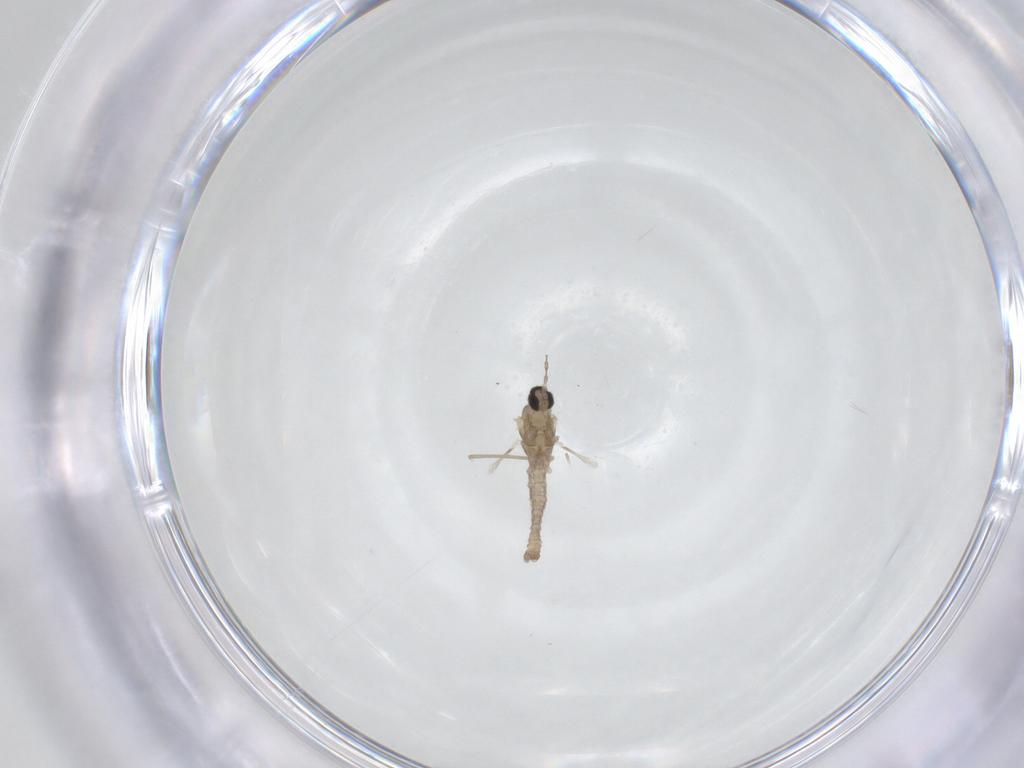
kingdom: Animalia
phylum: Arthropoda
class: Insecta
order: Diptera
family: Cecidomyiidae
